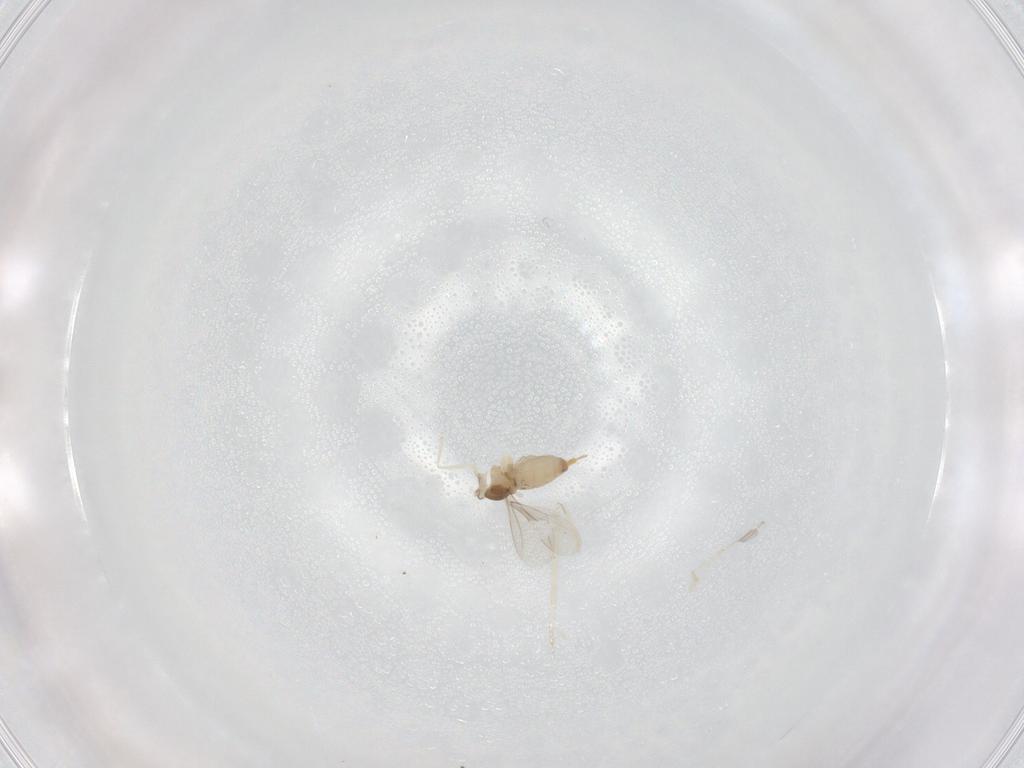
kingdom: Animalia
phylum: Arthropoda
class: Insecta
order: Diptera
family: Cecidomyiidae
